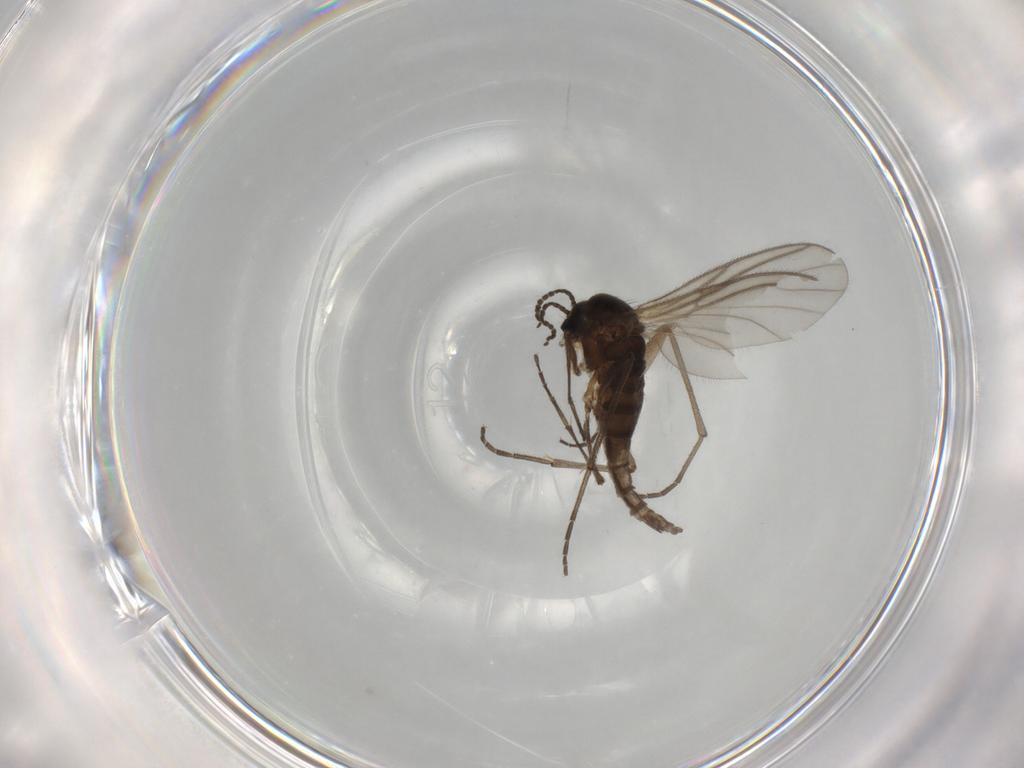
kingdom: Animalia
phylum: Arthropoda
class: Insecta
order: Diptera
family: Sciaridae
